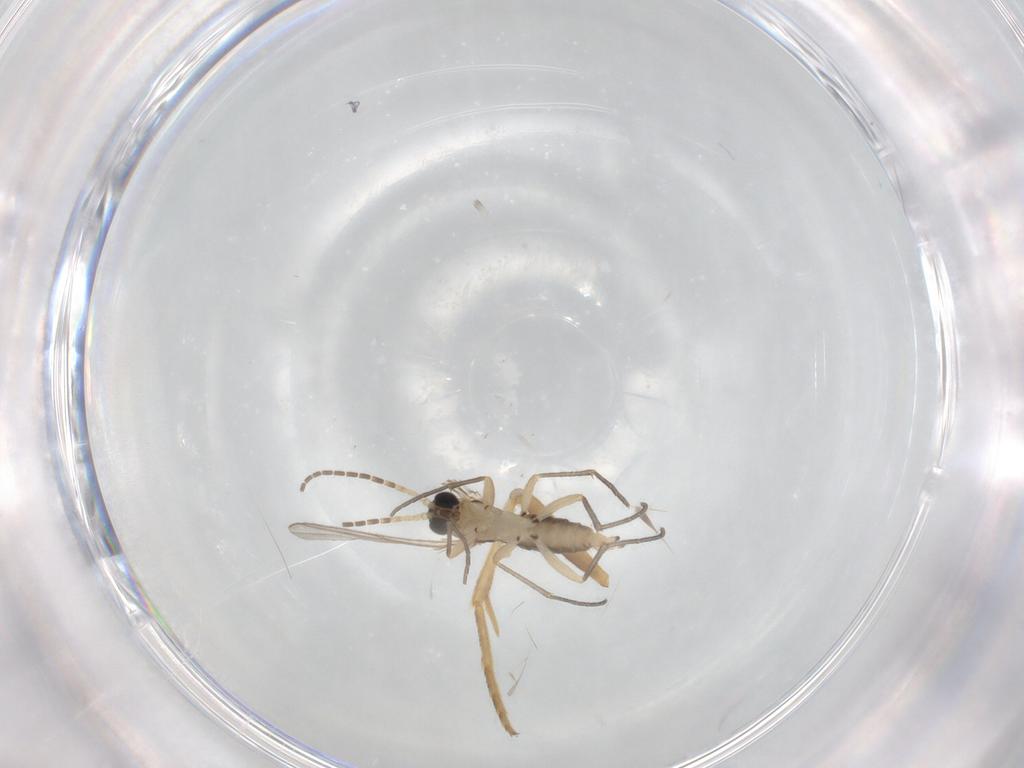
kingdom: Animalia
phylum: Arthropoda
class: Insecta
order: Diptera
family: Sciaridae
